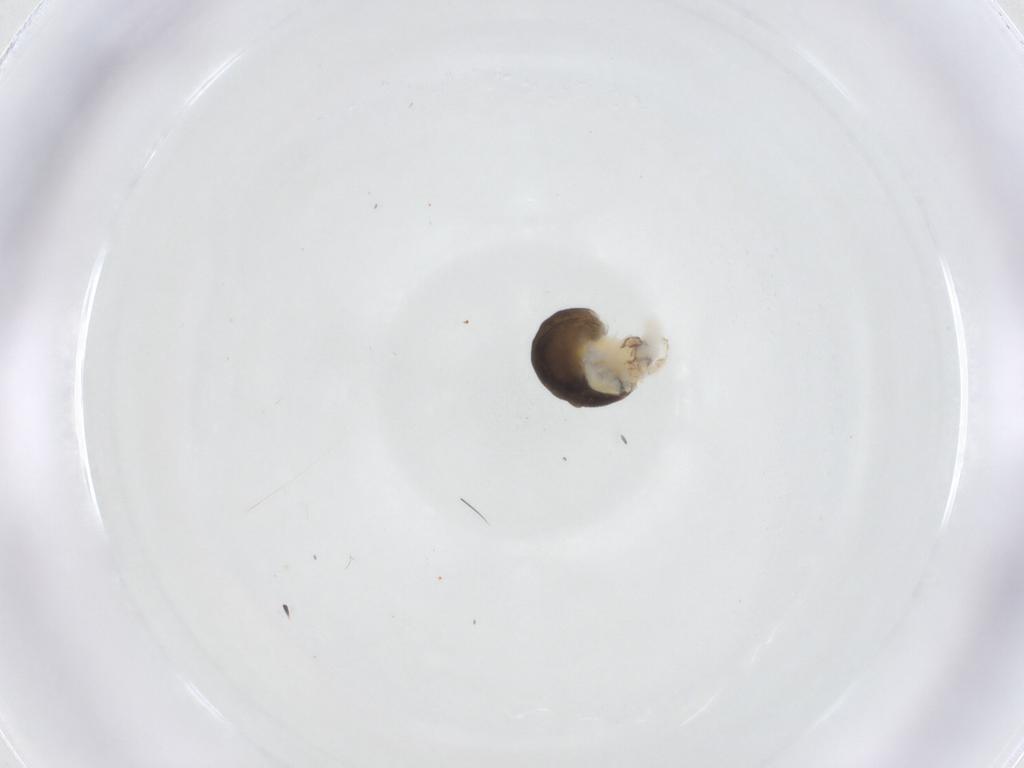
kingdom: Animalia
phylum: Arthropoda
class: Insecta
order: Hymenoptera
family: Dryinidae
